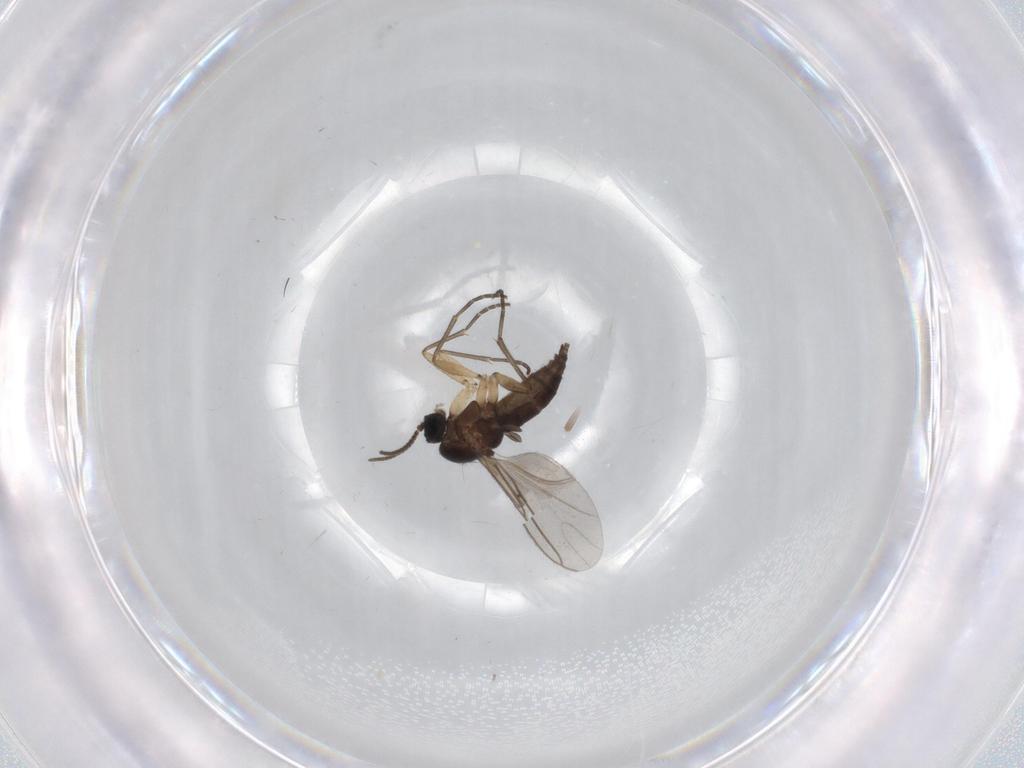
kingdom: Animalia
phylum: Arthropoda
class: Insecta
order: Diptera
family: Sciaridae
